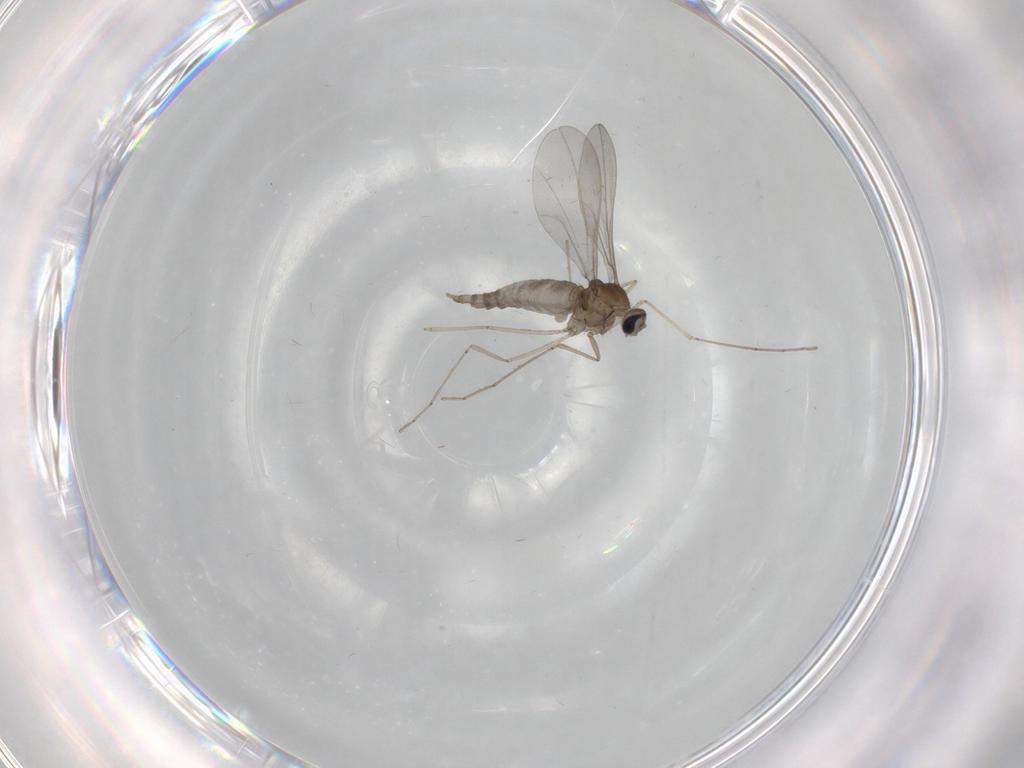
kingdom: Animalia
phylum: Arthropoda
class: Insecta
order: Diptera
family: Cecidomyiidae
